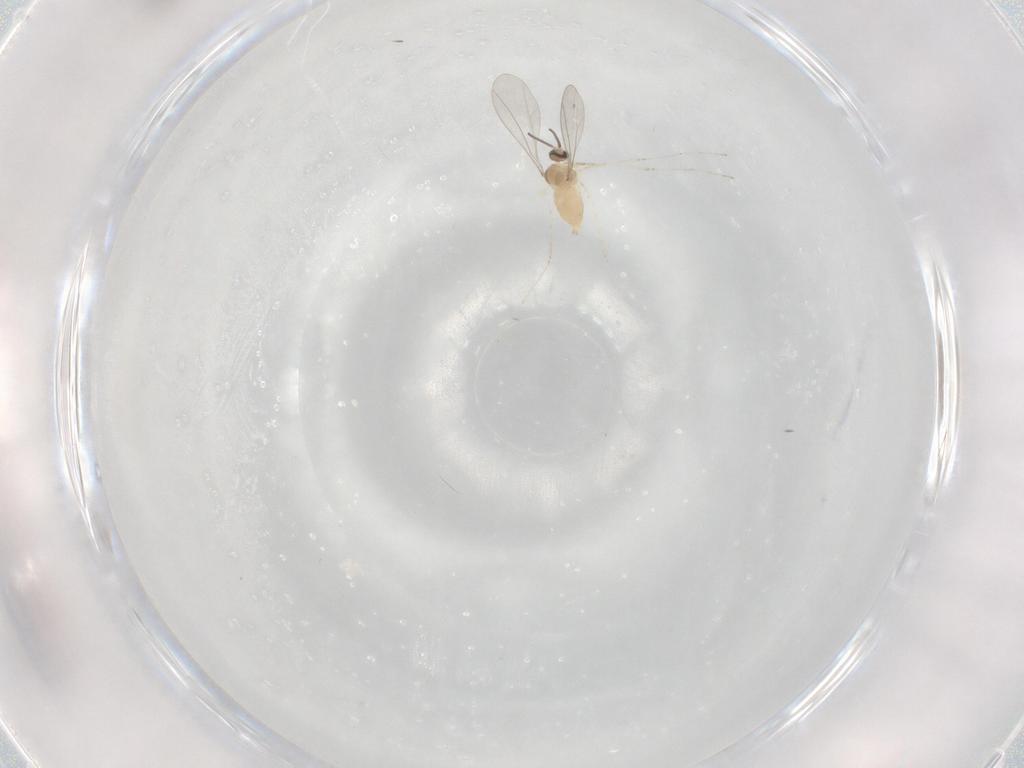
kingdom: Animalia
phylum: Arthropoda
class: Insecta
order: Diptera
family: Cecidomyiidae
